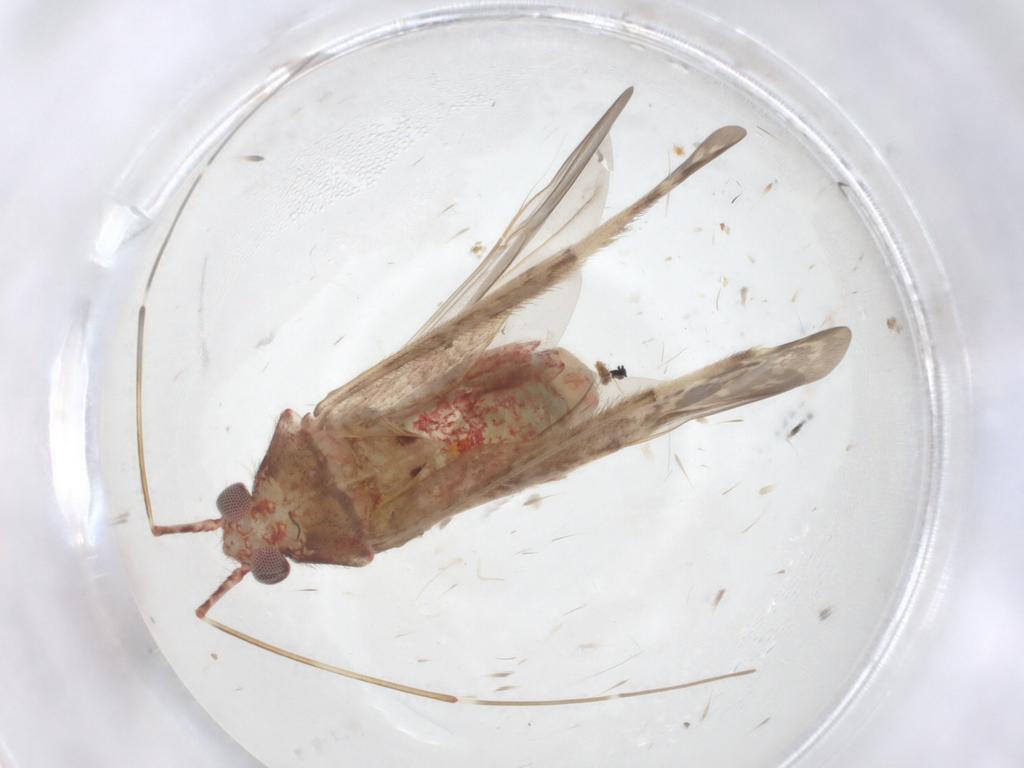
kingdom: Animalia
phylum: Arthropoda
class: Insecta
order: Hemiptera
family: Miridae
